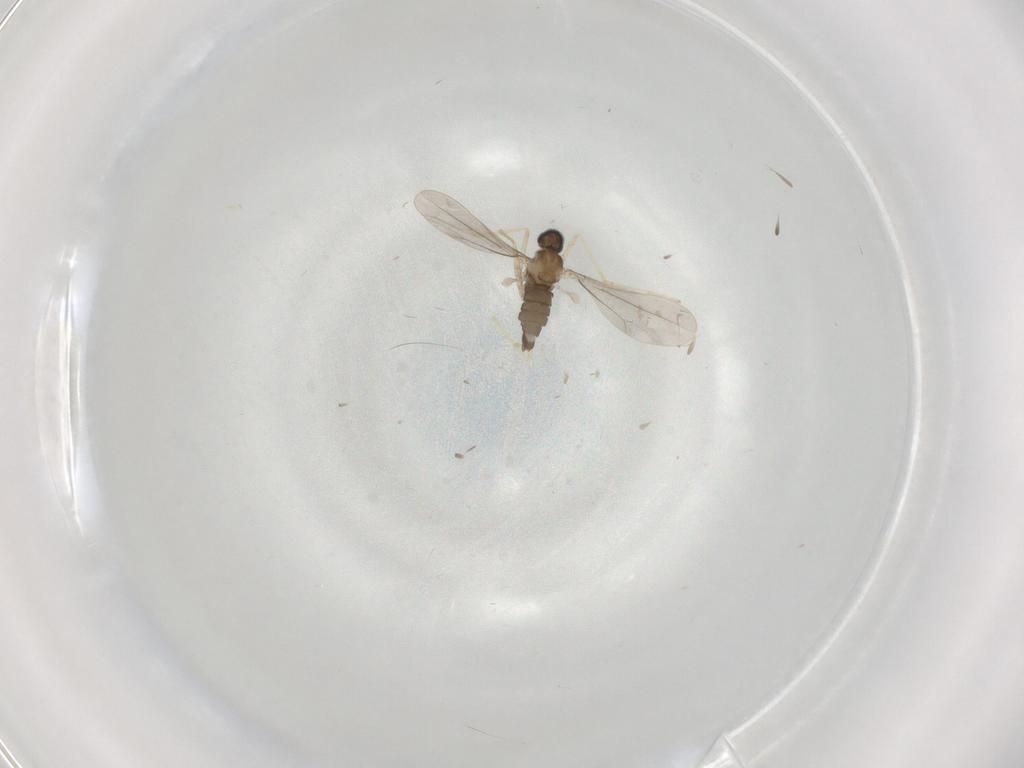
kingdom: Animalia
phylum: Arthropoda
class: Insecta
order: Diptera
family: Cecidomyiidae
